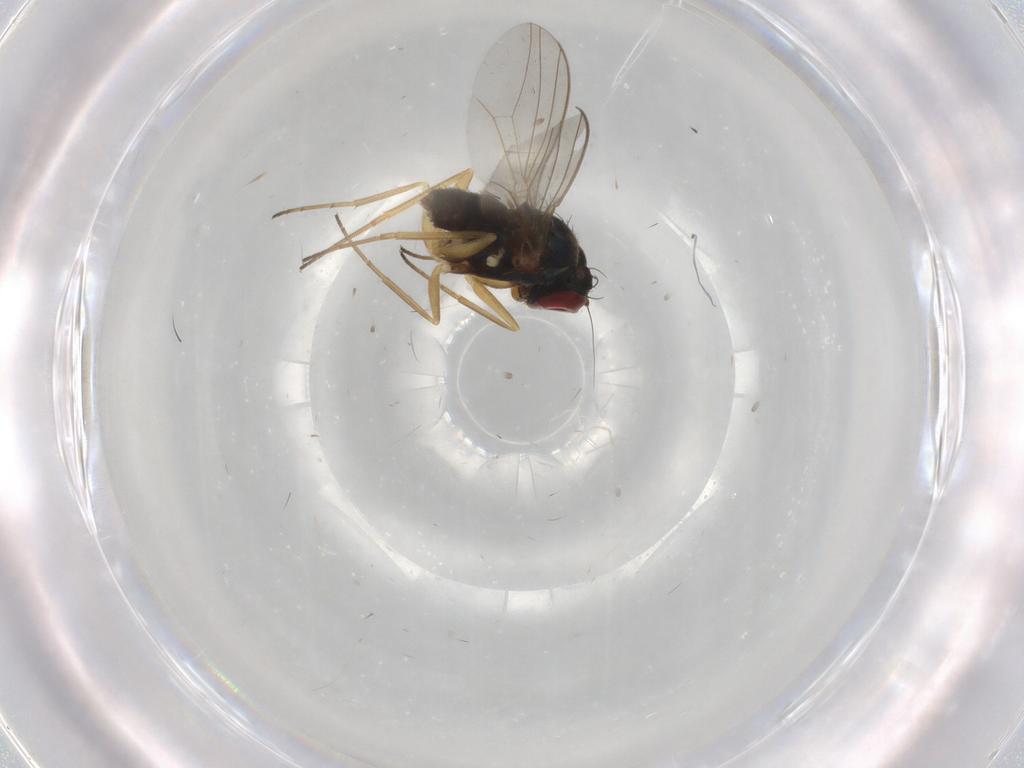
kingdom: Animalia
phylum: Arthropoda
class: Insecta
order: Diptera
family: Dolichopodidae
